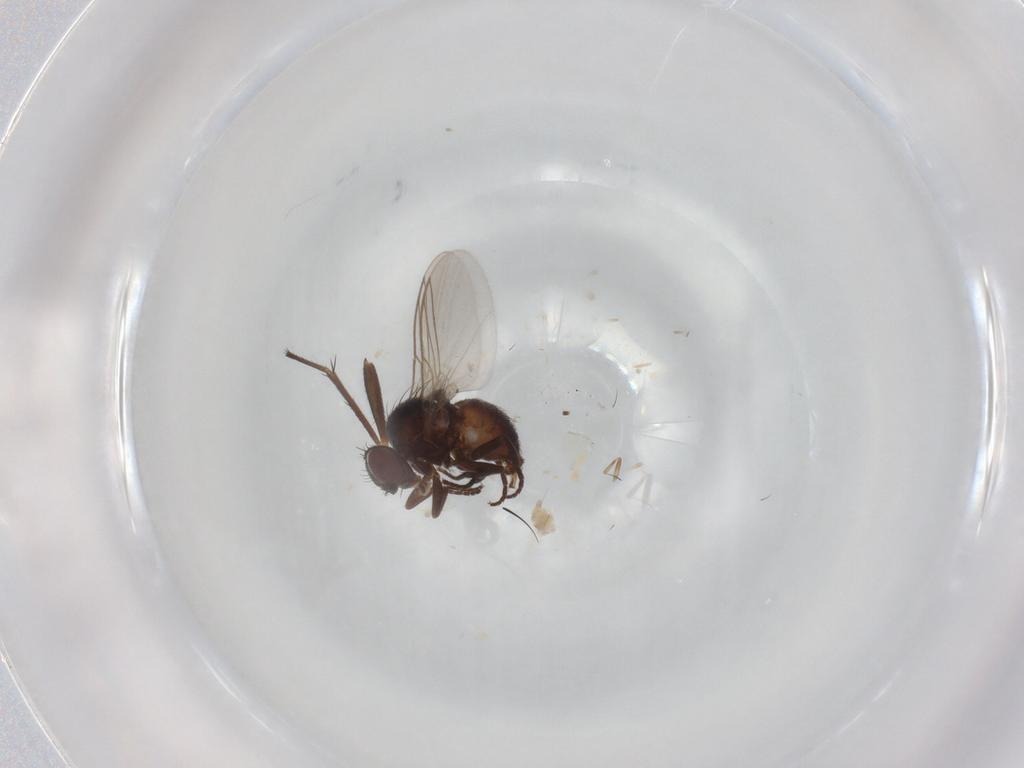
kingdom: Animalia
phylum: Arthropoda
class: Insecta
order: Diptera
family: Dolichopodidae
